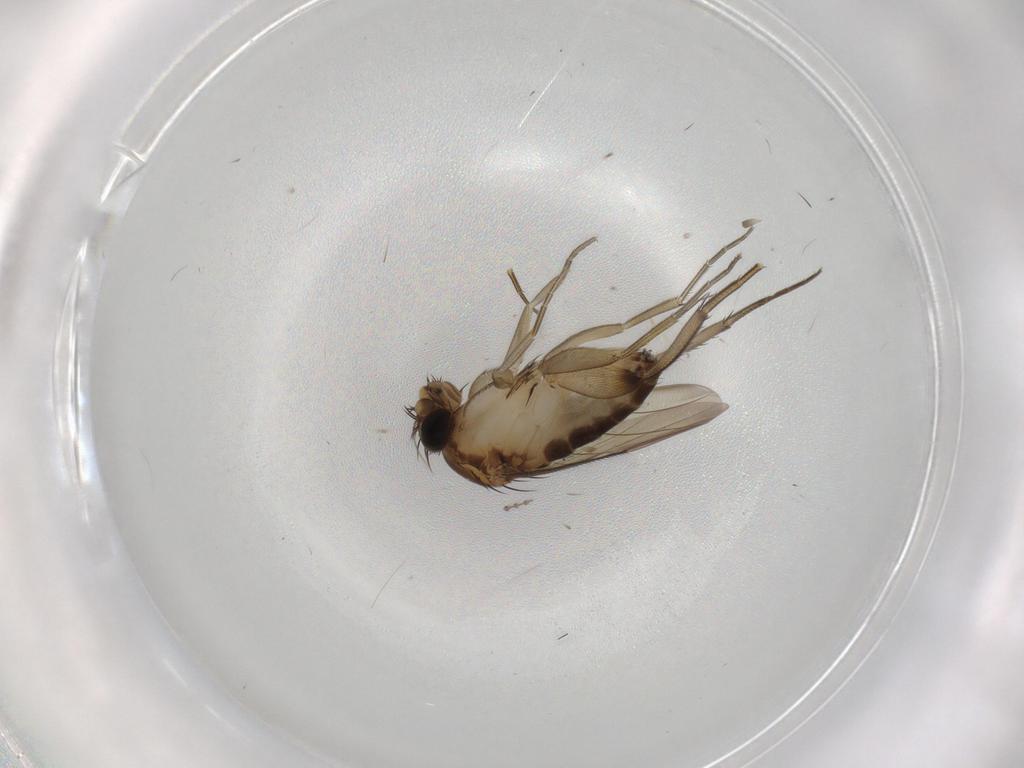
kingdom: Animalia
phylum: Arthropoda
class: Insecta
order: Diptera
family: Phoridae
